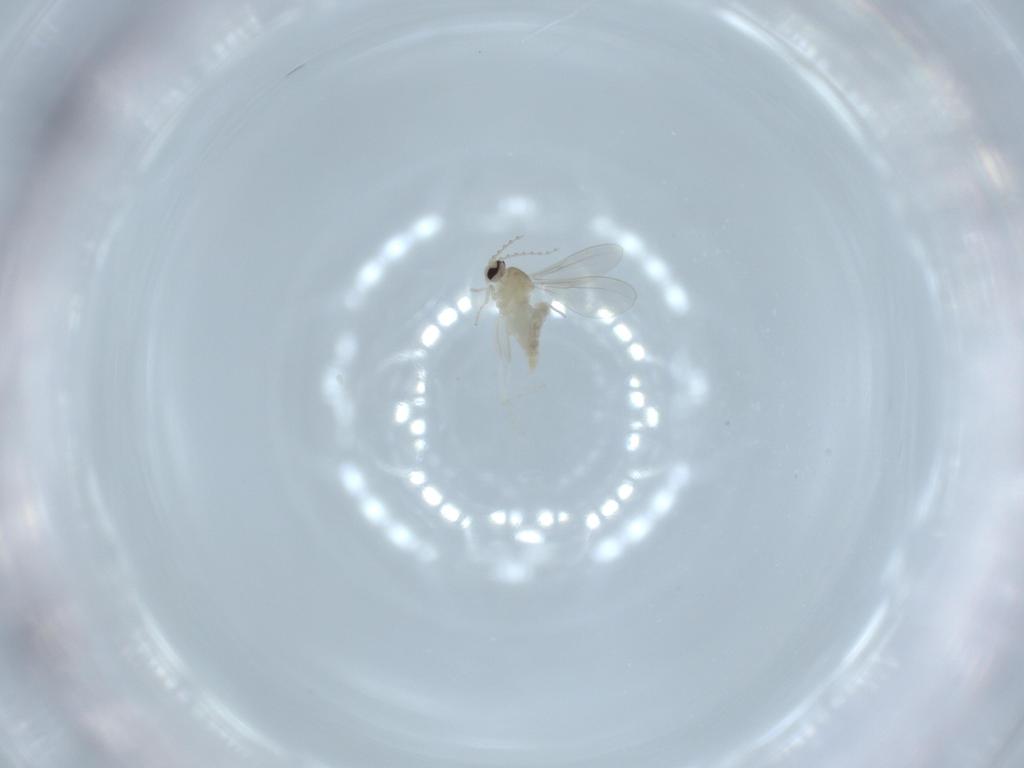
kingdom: Animalia
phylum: Arthropoda
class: Insecta
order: Diptera
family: Cecidomyiidae
